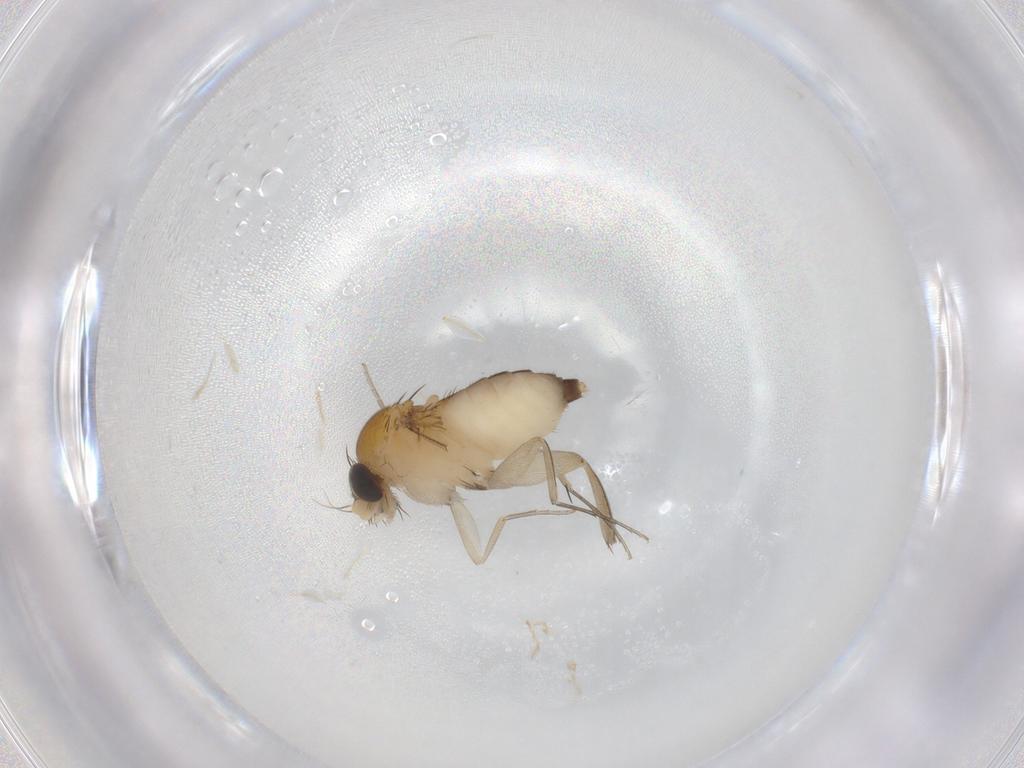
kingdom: Animalia
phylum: Arthropoda
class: Insecta
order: Diptera
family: Phoridae
